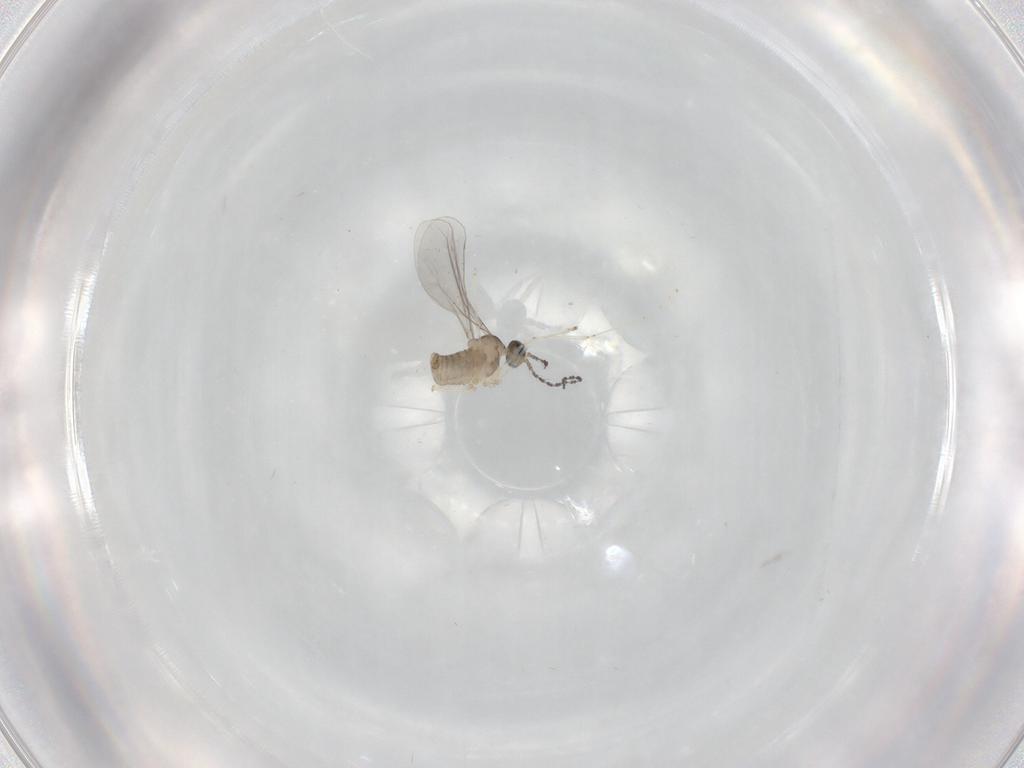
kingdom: Animalia
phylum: Arthropoda
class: Insecta
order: Diptera
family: Cecidomyiidae
